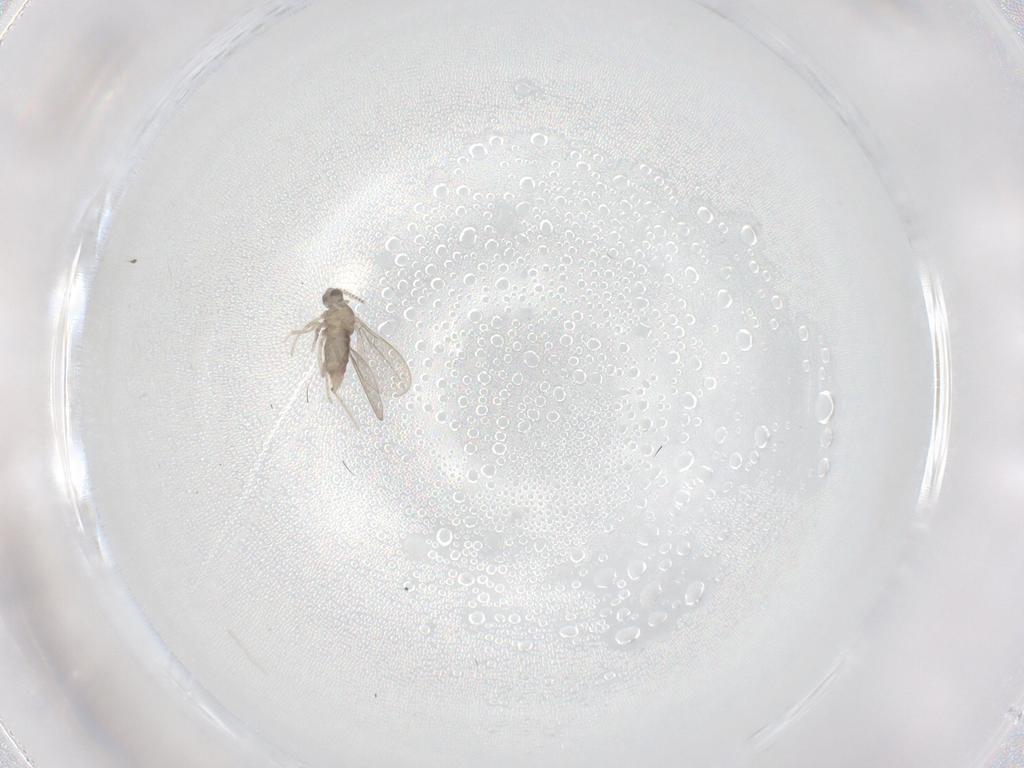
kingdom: Animalia
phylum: Arthropoda
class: Insecta
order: Diptera
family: Cecidomyiidae
